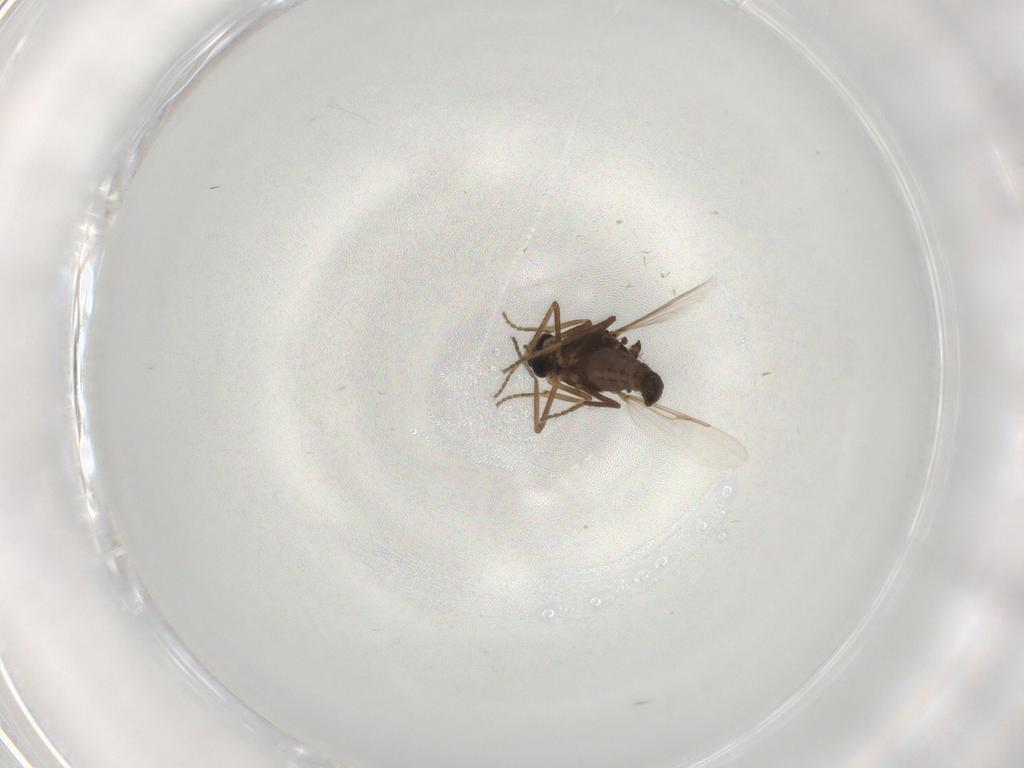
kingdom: Animalia
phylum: Arthropoda
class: Insecta
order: Diptera
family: Ceratopogonidae
